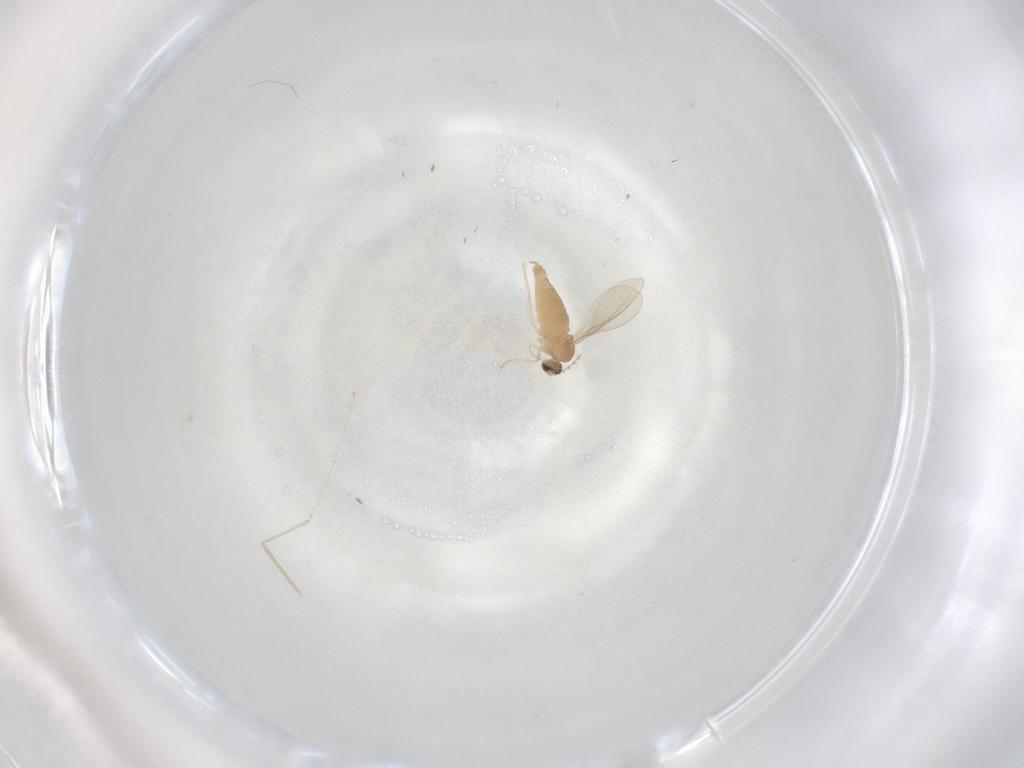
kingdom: Animalia
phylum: Arthropoda
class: Insecta
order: Diptera
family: Cecidomyiidae
